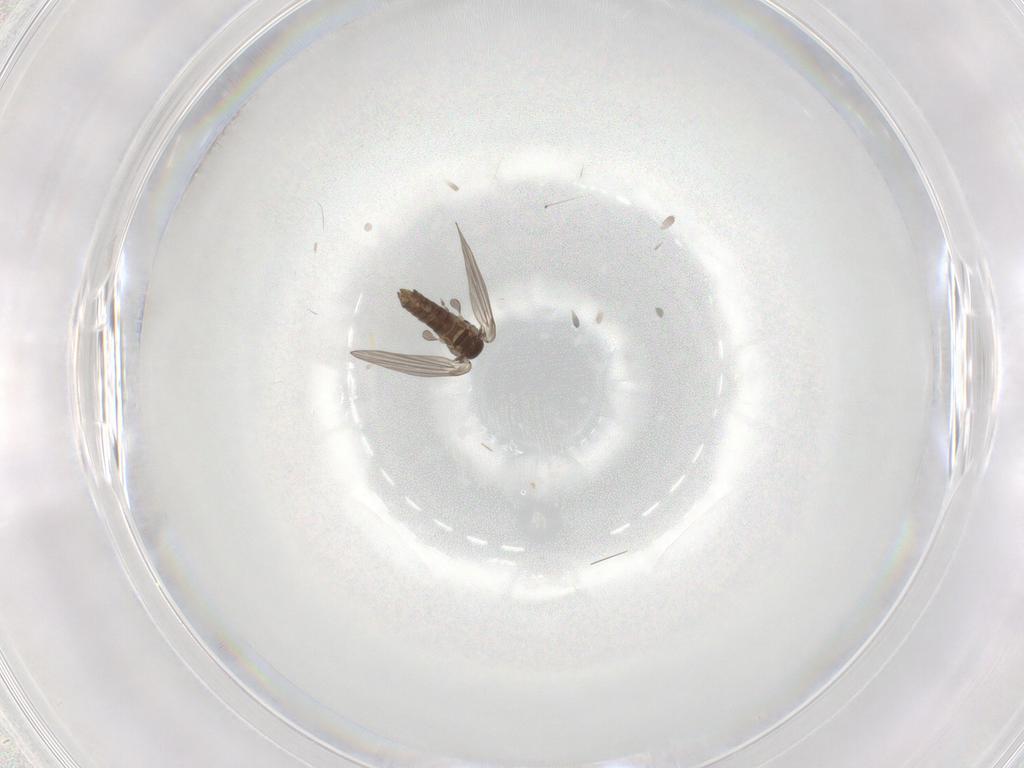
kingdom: Animalia
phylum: Arthropoda
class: Insecta
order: Diptera
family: Psychodidae
